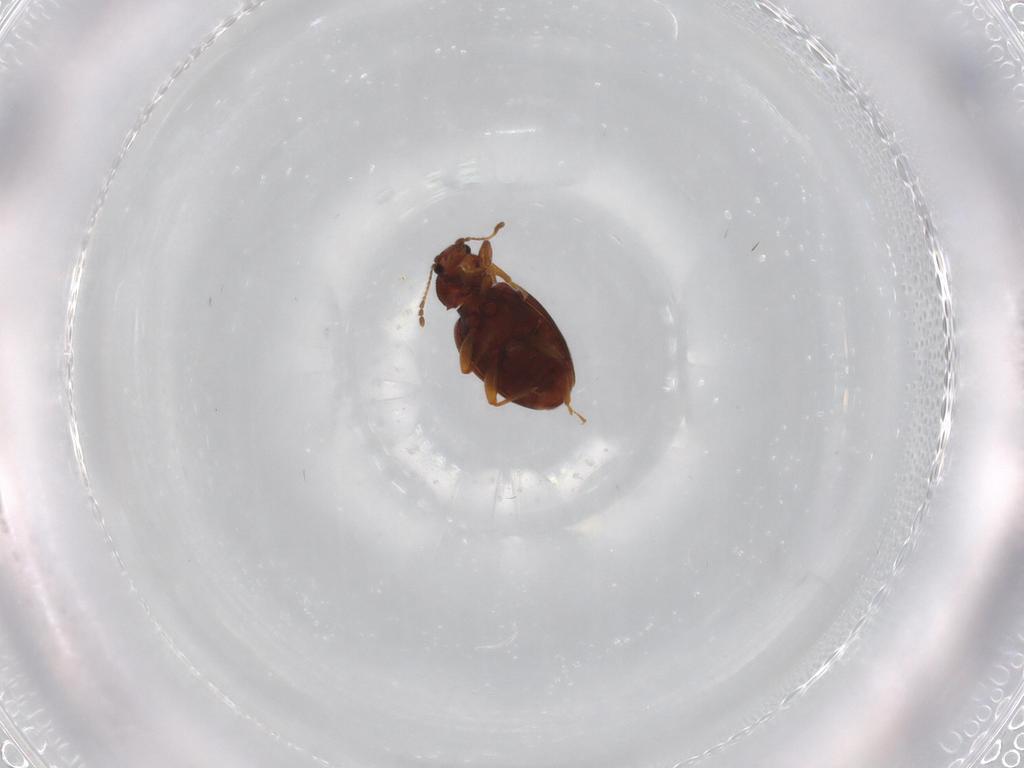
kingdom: Animalia
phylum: Arthropoda
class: Insecta
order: Coleoptera
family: Latridiidae
